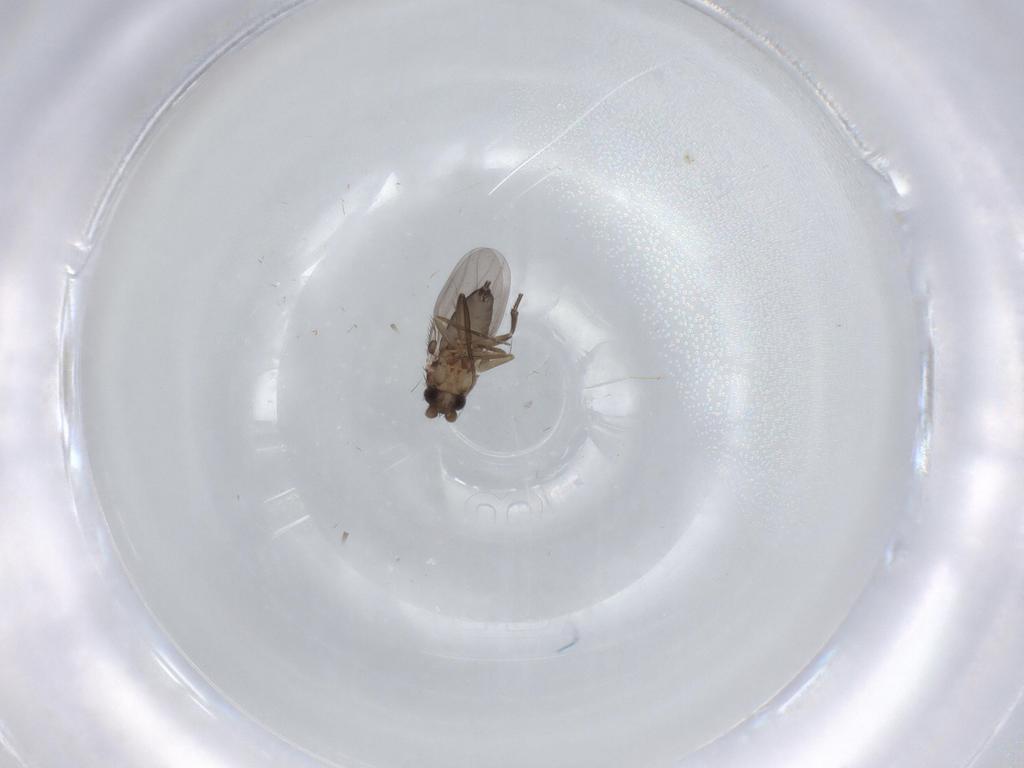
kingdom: Animalia
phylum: Arthropoda
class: Insecta
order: Diptera
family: Phoridae
